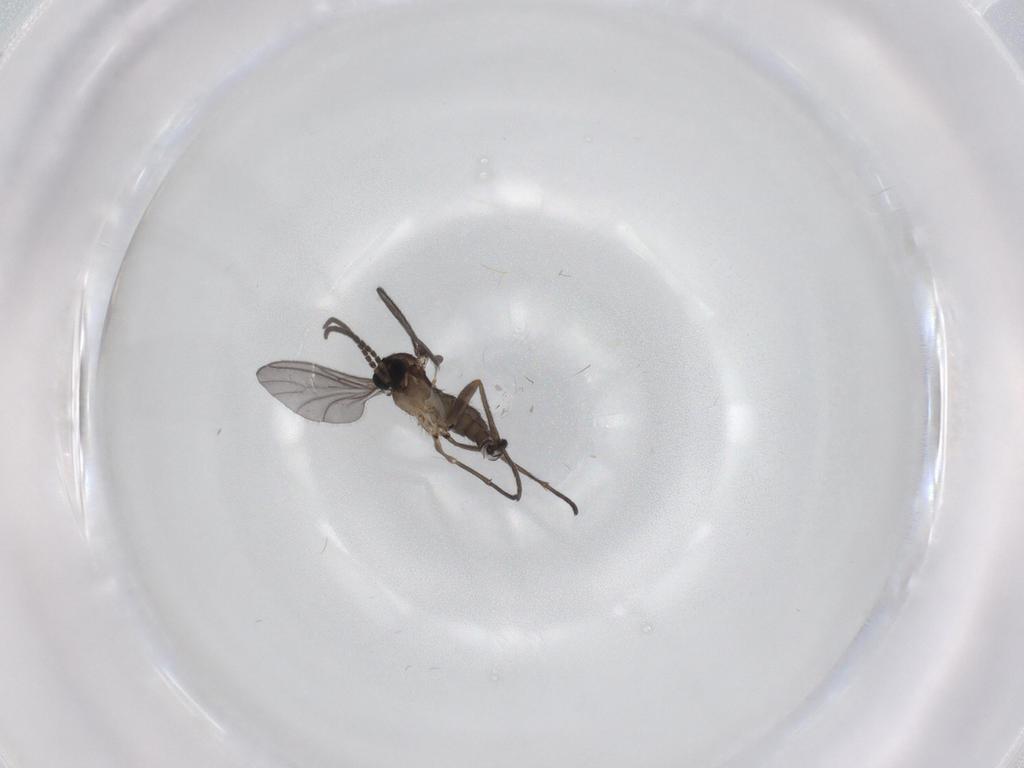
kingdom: Animalia
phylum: Arthropoda
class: Insecta
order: Diptera
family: Sciaridae
